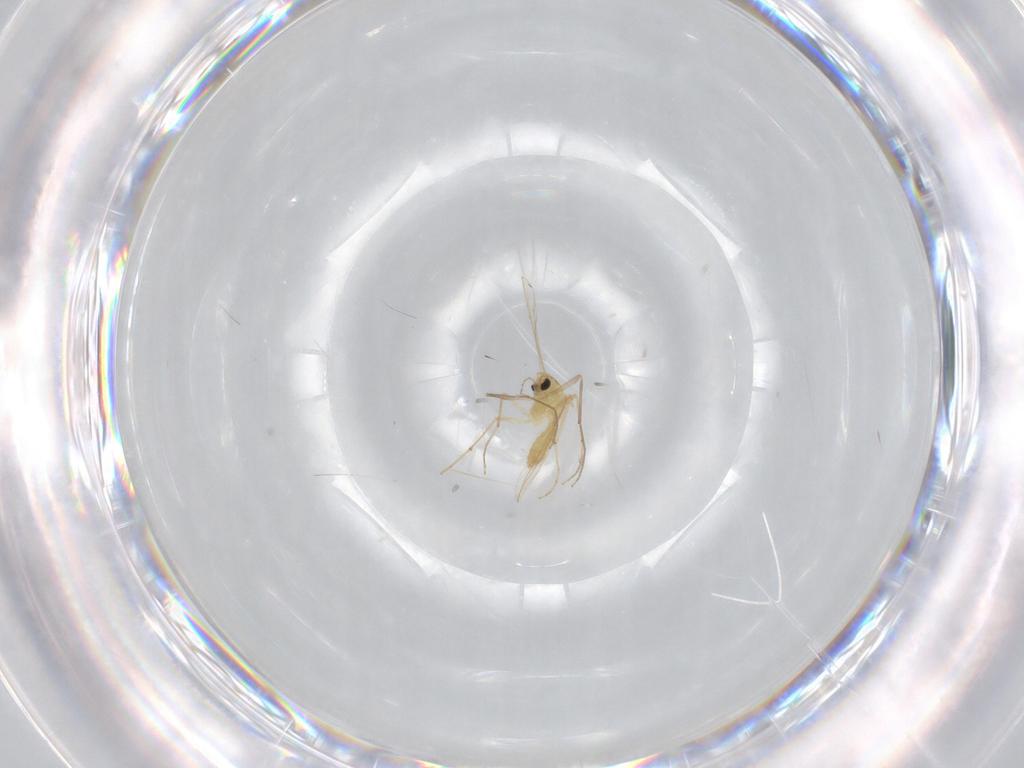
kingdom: Animalia
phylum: Arthropoda
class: Insecta
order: Diptera
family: Chironomidae
